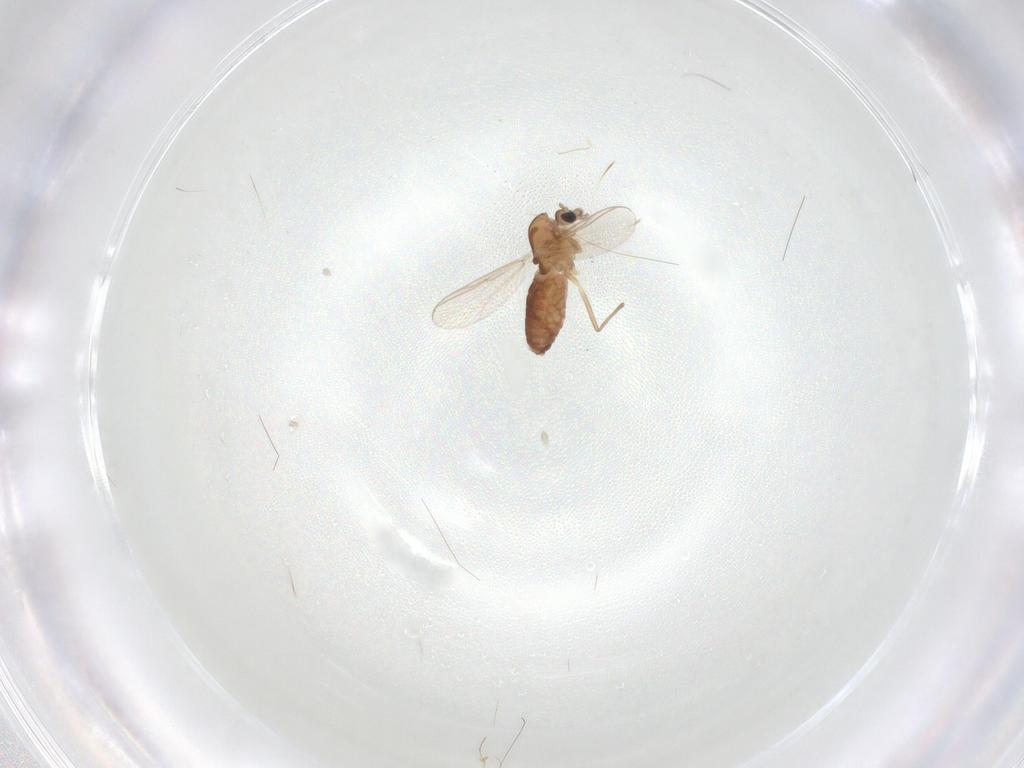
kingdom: Animalia
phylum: Arthropoda
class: Insecta
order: Diptera
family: Chironomidae
